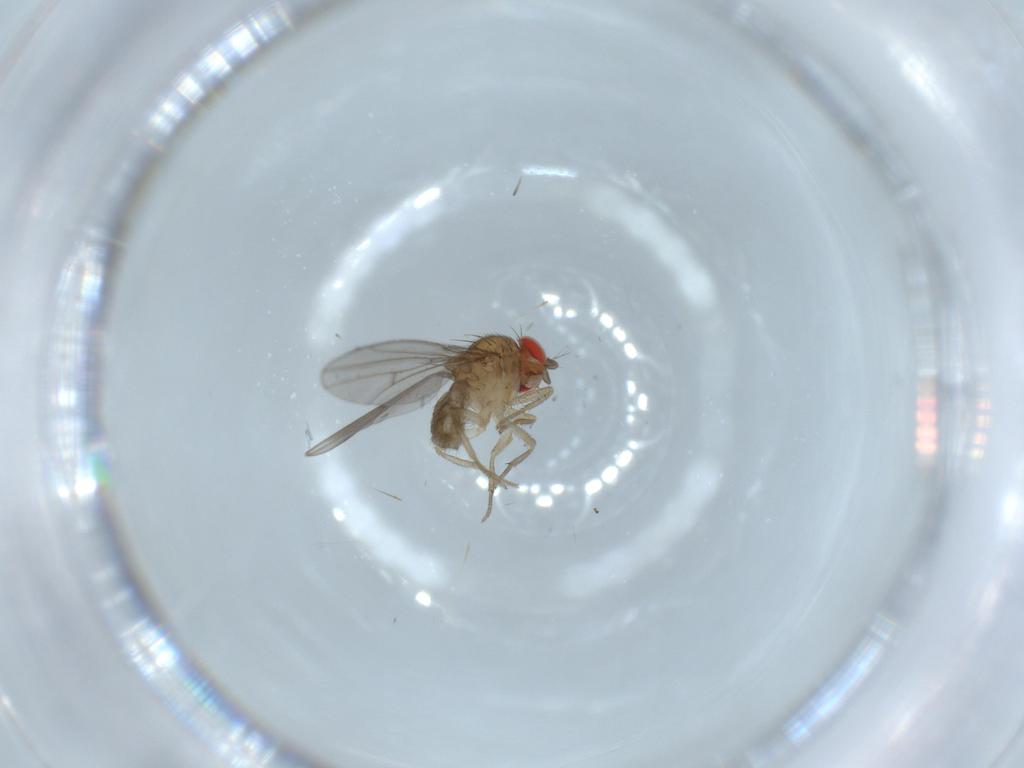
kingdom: Animalia
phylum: Arthropoda
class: Insecta
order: Diptera
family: Drosophilidae
